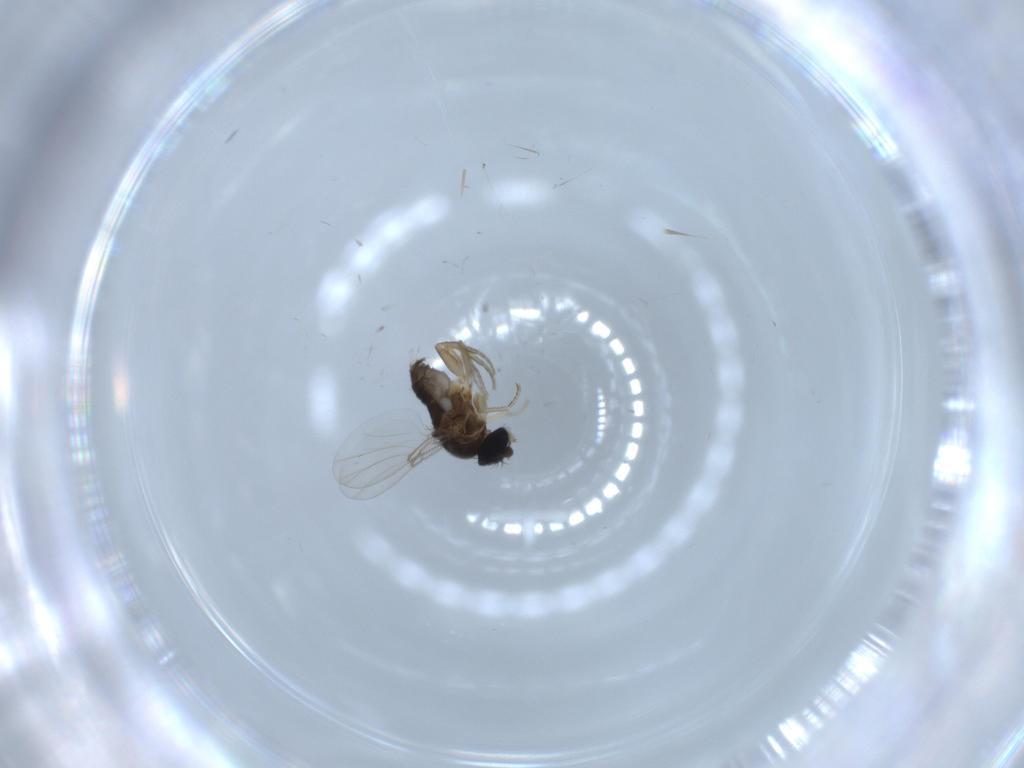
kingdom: Animalia
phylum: Arthropoda
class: Insecta
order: Diptera
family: Phoridae
